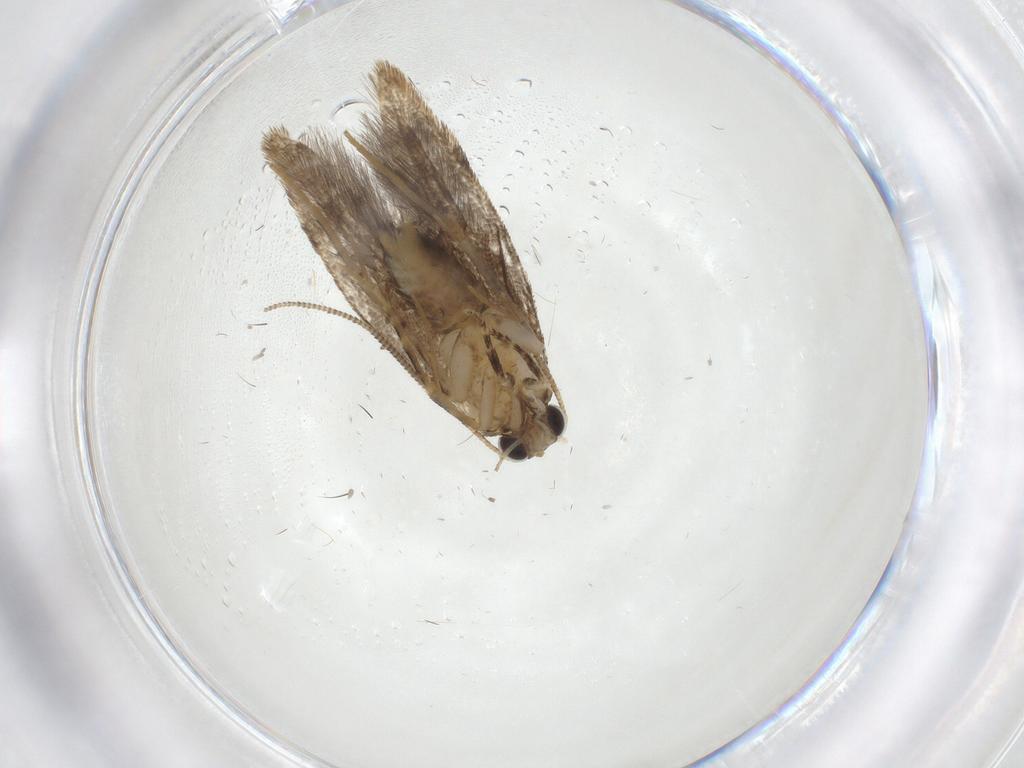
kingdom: Animalia
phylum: Arthropoda
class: Insecta
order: Lepidoptera
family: Tineidae
